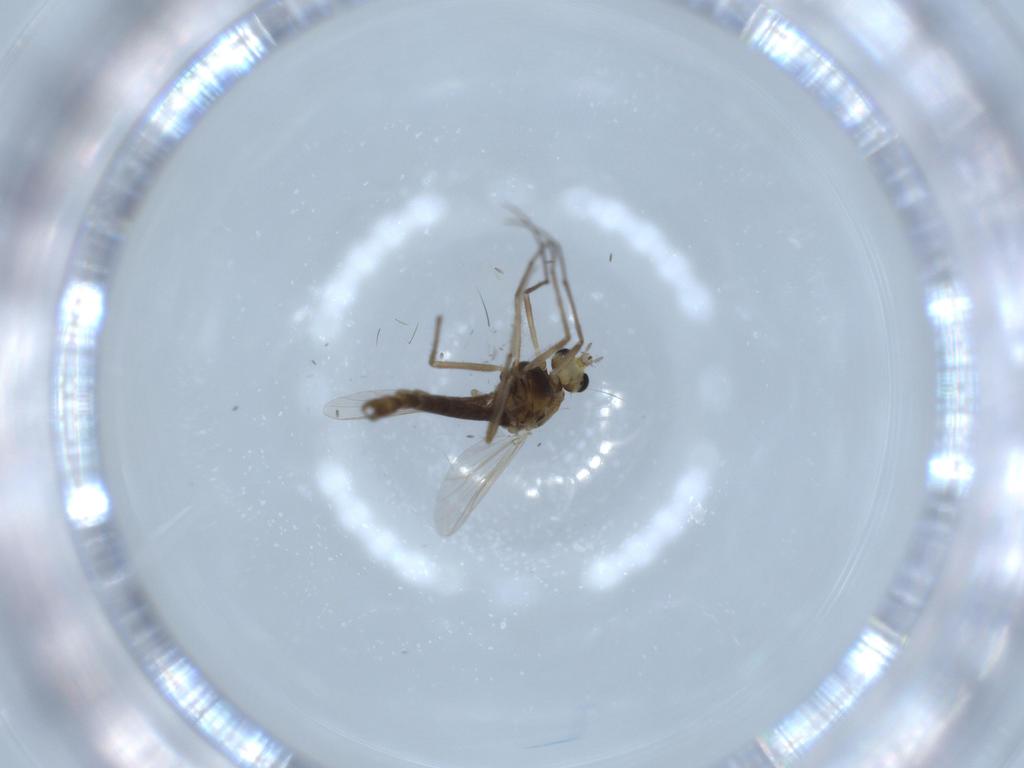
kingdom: Animalia
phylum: Arthropoda
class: Insecta
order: Diptera
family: Chironomidae
